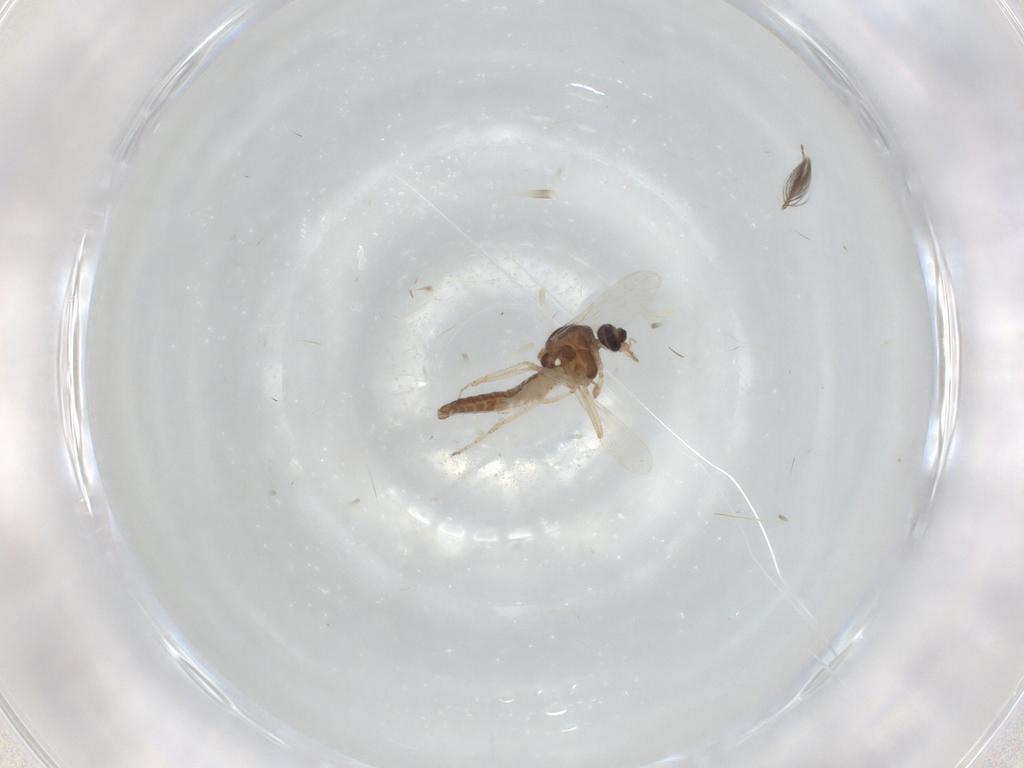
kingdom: Animalia
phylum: Arthropoda
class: Insecta
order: Diptera
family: Ceratopogonidae
